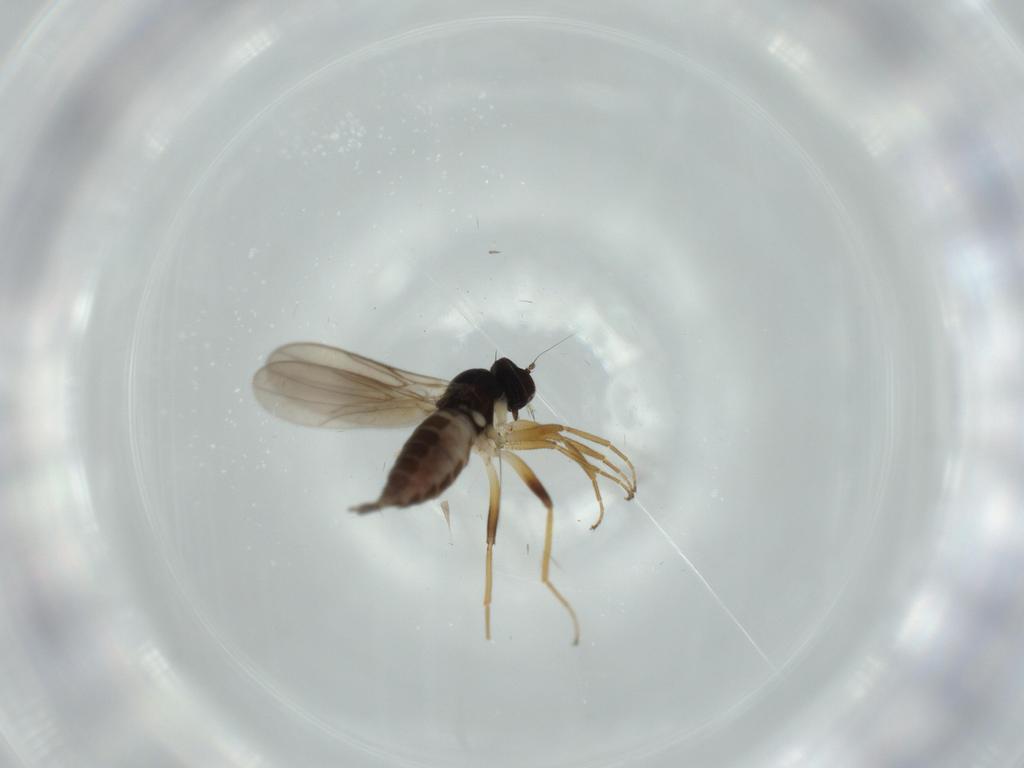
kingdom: Animalia
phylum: Arthropoda
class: Insecta
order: Diptera
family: Hybotidae
